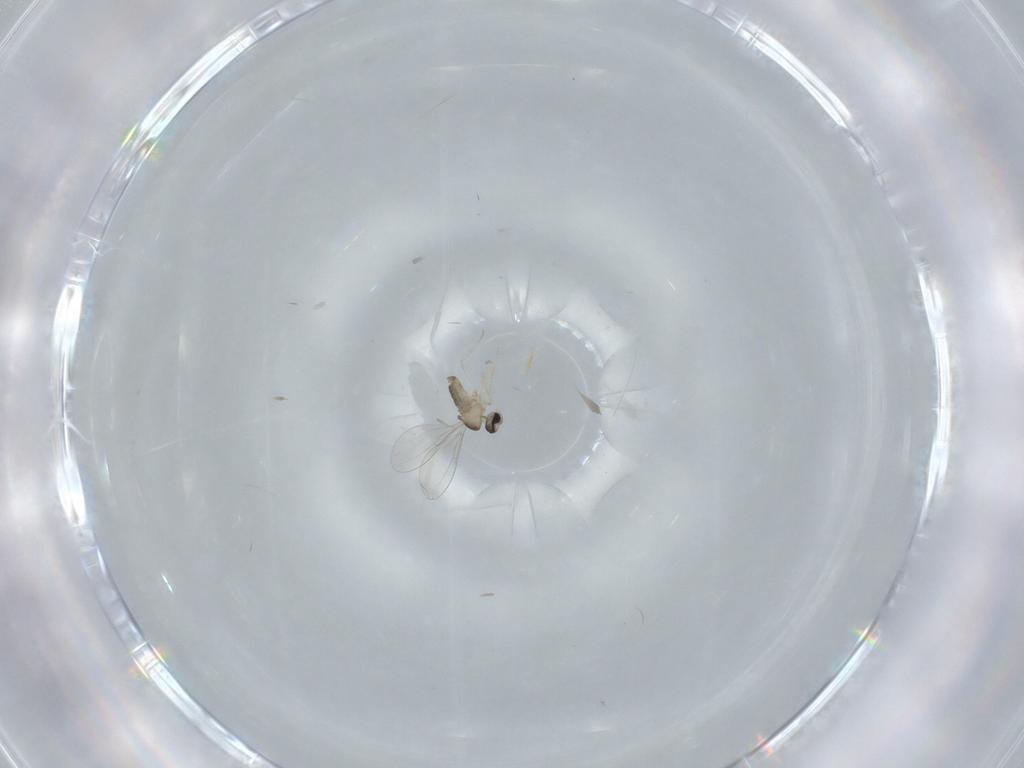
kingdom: Animalia
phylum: Arthropoda
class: Insecta
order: Diptera
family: Cecidomyiidae
